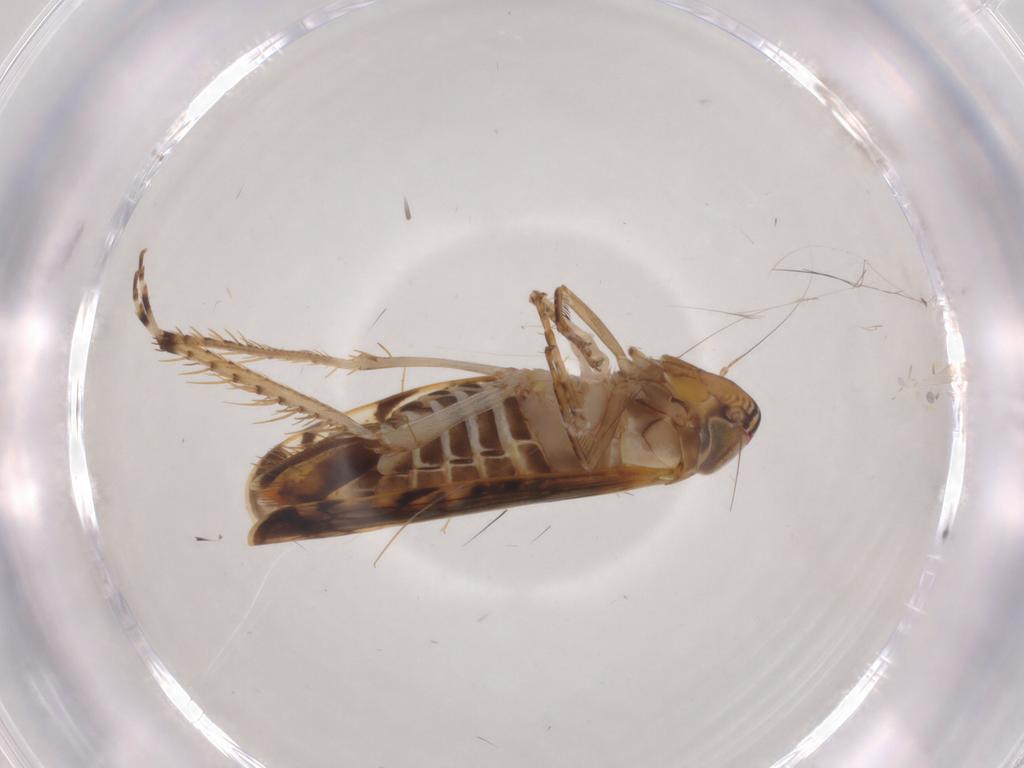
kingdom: Animalia
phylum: Arthropoda
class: Insecta
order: Hemiptera
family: Cicadellidae
